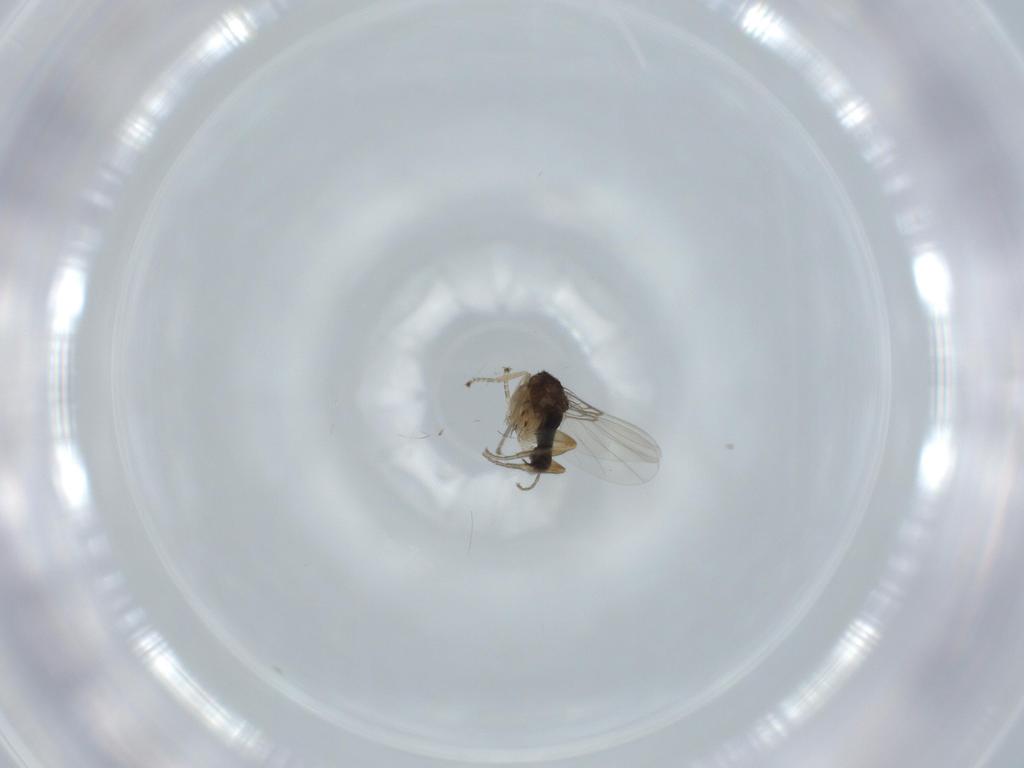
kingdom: Animalia
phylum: Arthropoda
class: Insecta
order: Diptera
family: Phoridae
